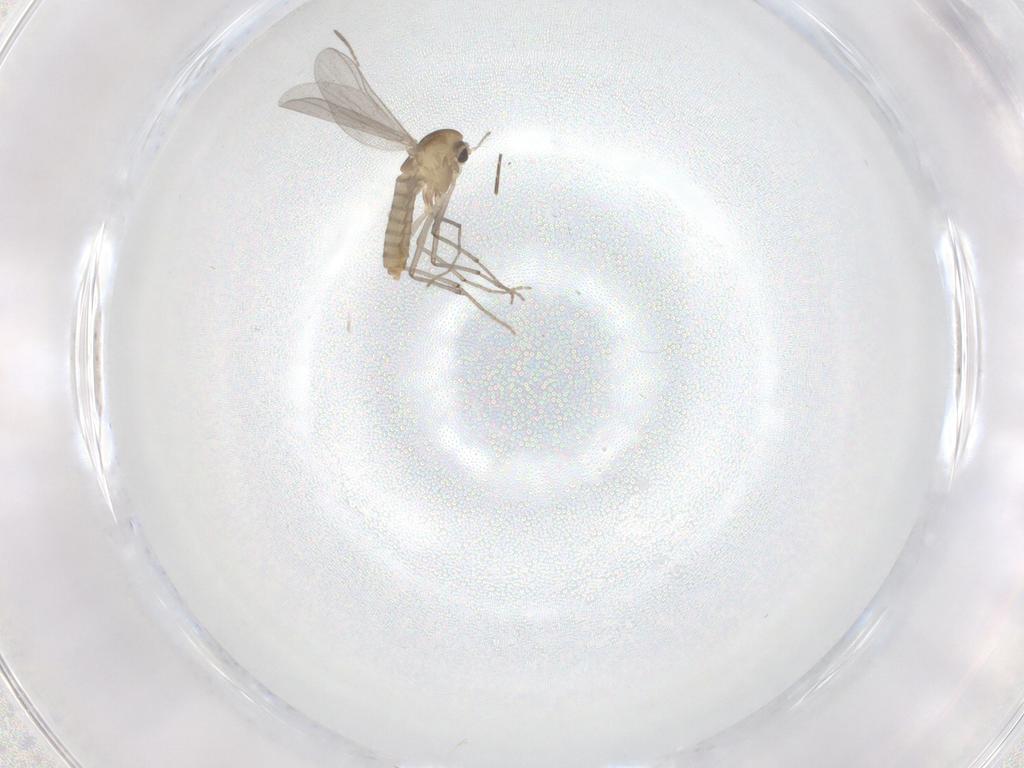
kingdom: Animalia
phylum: Arthropoda
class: Insecta
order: Diptera
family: Chironomidae
